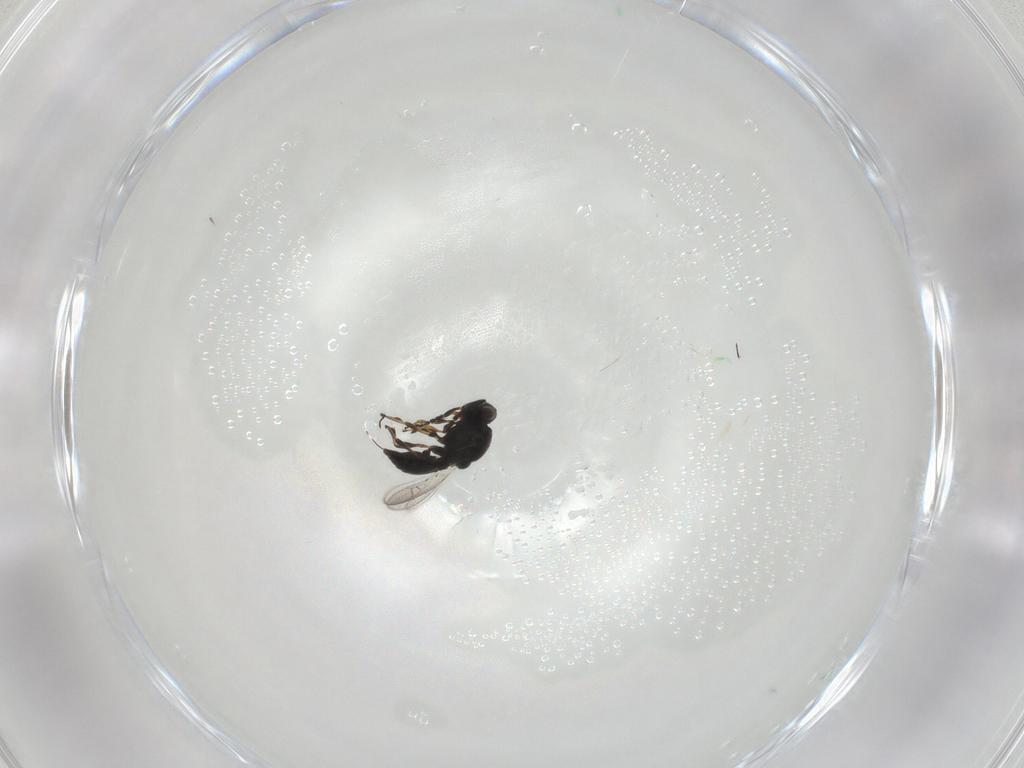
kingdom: Animalia
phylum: Arthropoda
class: Insecta
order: Hymenoptera
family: Platygastridae
